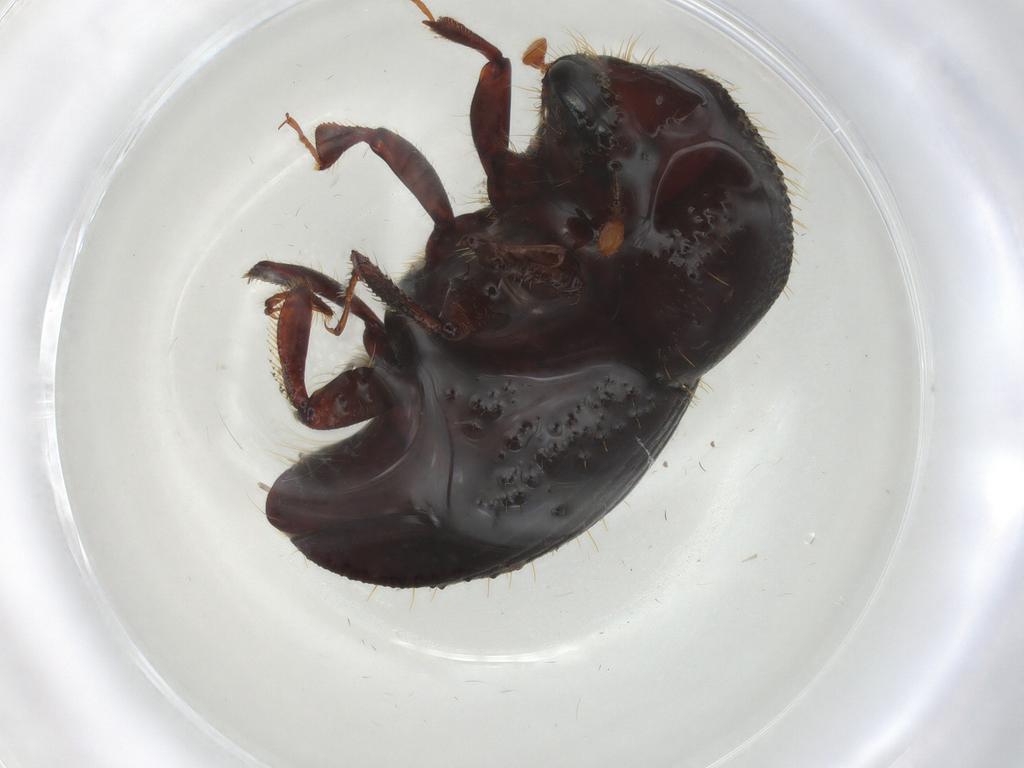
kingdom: Animalia
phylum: Arthropoda
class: Insecta
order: Coleoptera
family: Curculionidae
